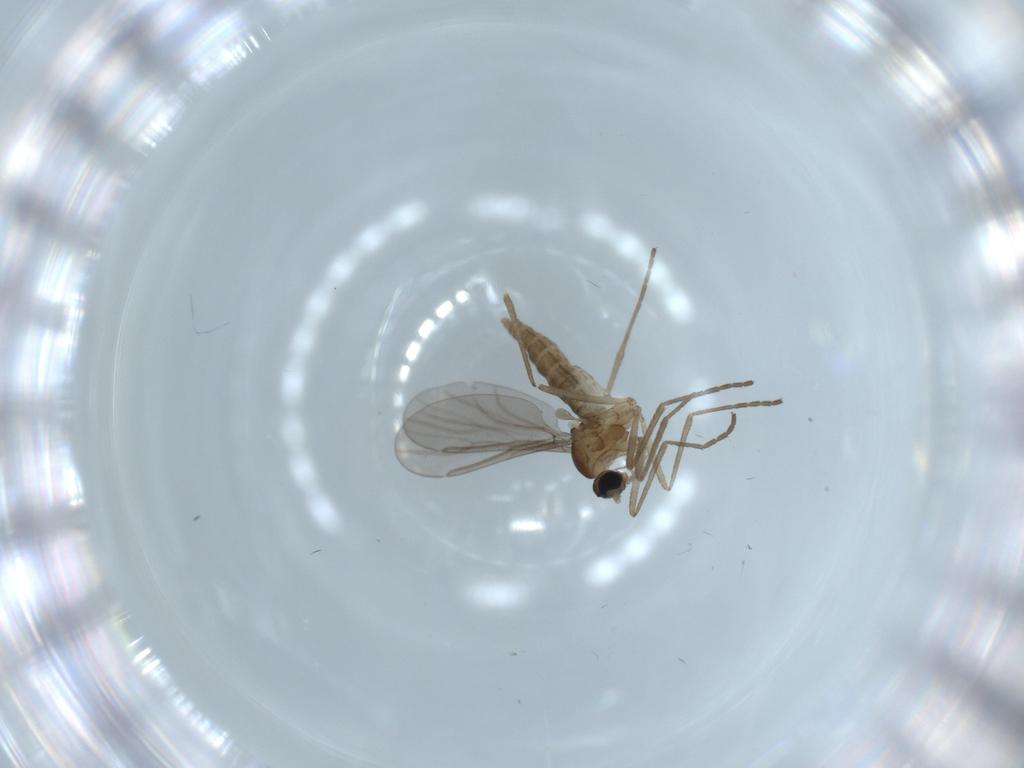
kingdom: Animalia
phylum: Arthropoda
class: Insecta
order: Diptera
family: Cecidomyiidae
